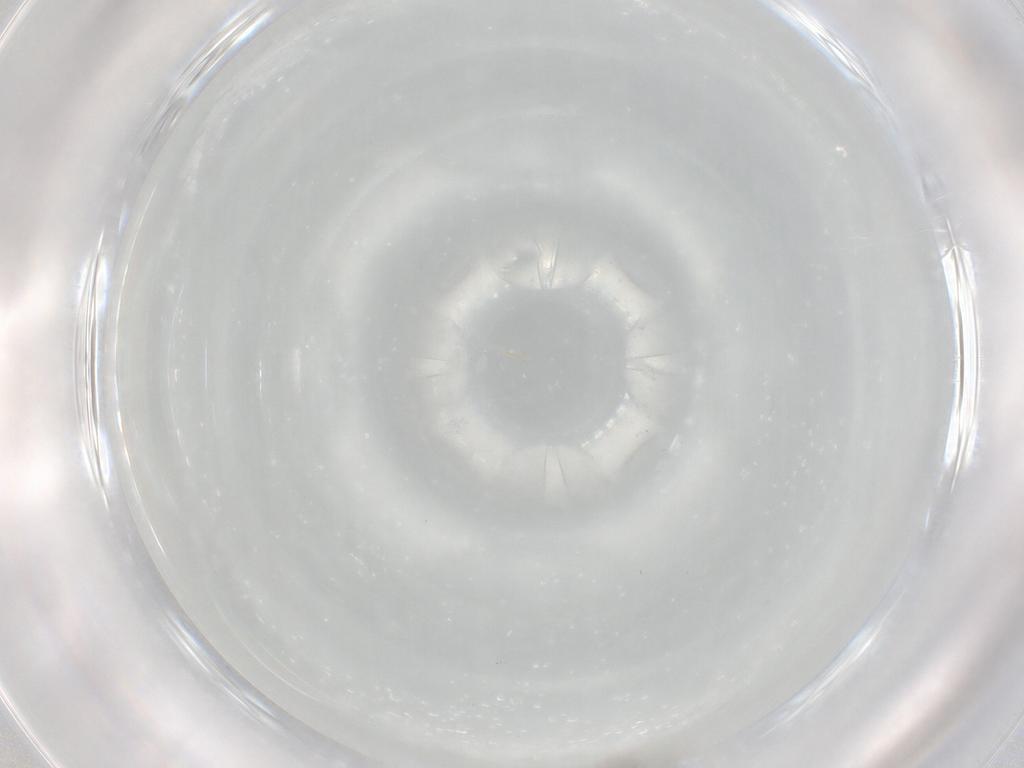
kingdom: Animalia
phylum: Arthropoda
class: Insecta
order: Diptera
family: Cecidomyiidae
